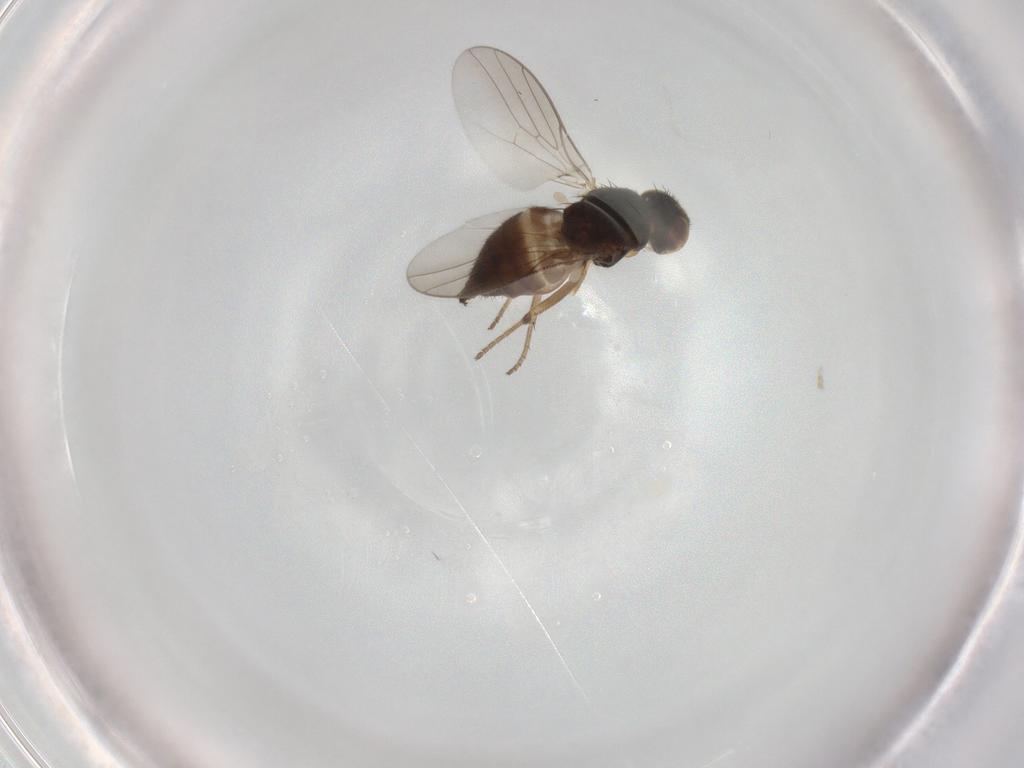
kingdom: Animalia
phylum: Arthropoda
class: Insecta
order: Diptera
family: Chloropidae
